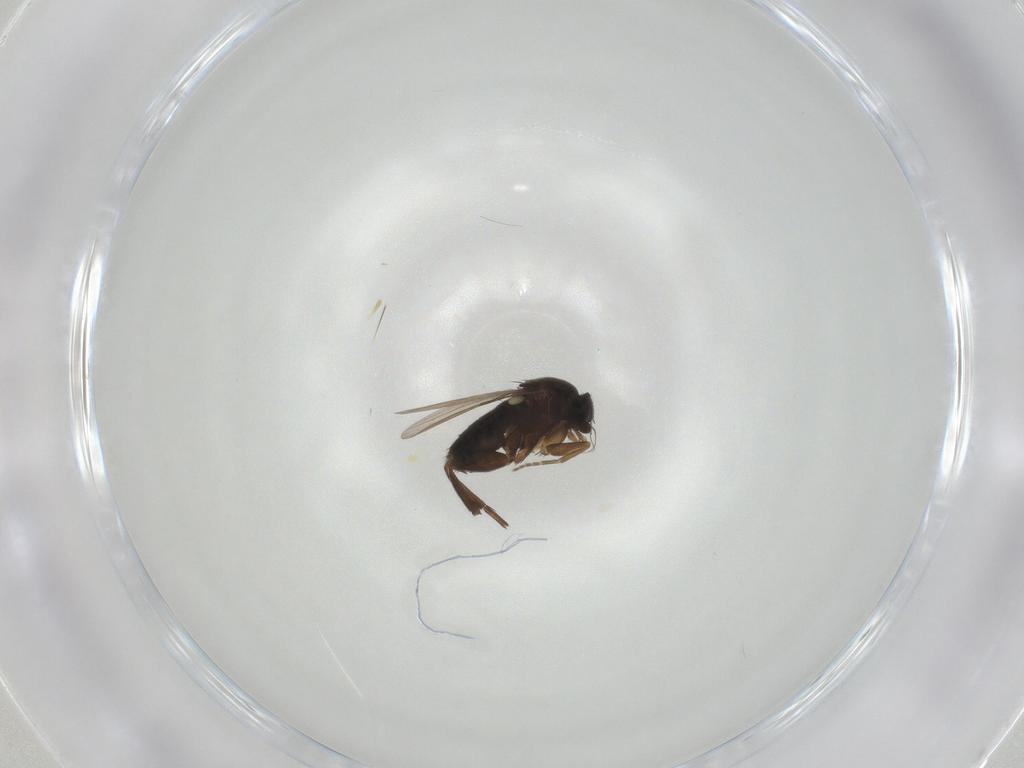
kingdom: Animalia
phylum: Arthropoda
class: Insecta
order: Diptera
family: Phoridae
